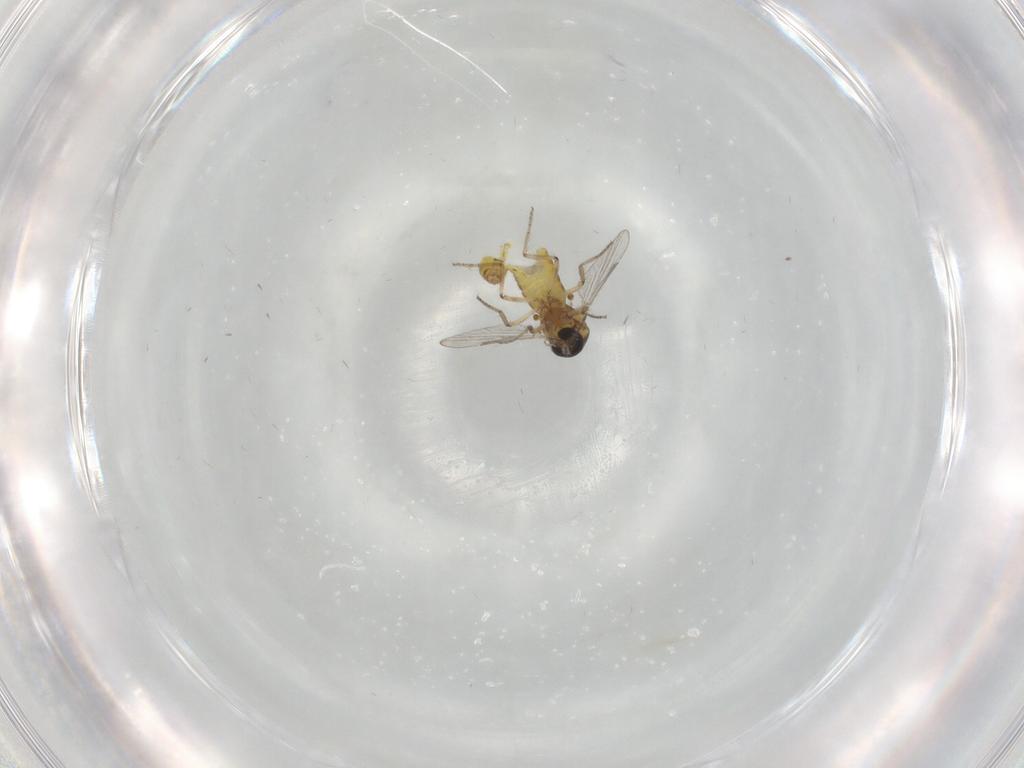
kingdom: Animalia
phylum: Arthropoda
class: Insecta
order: Diptera
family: Ceratopogonidae
